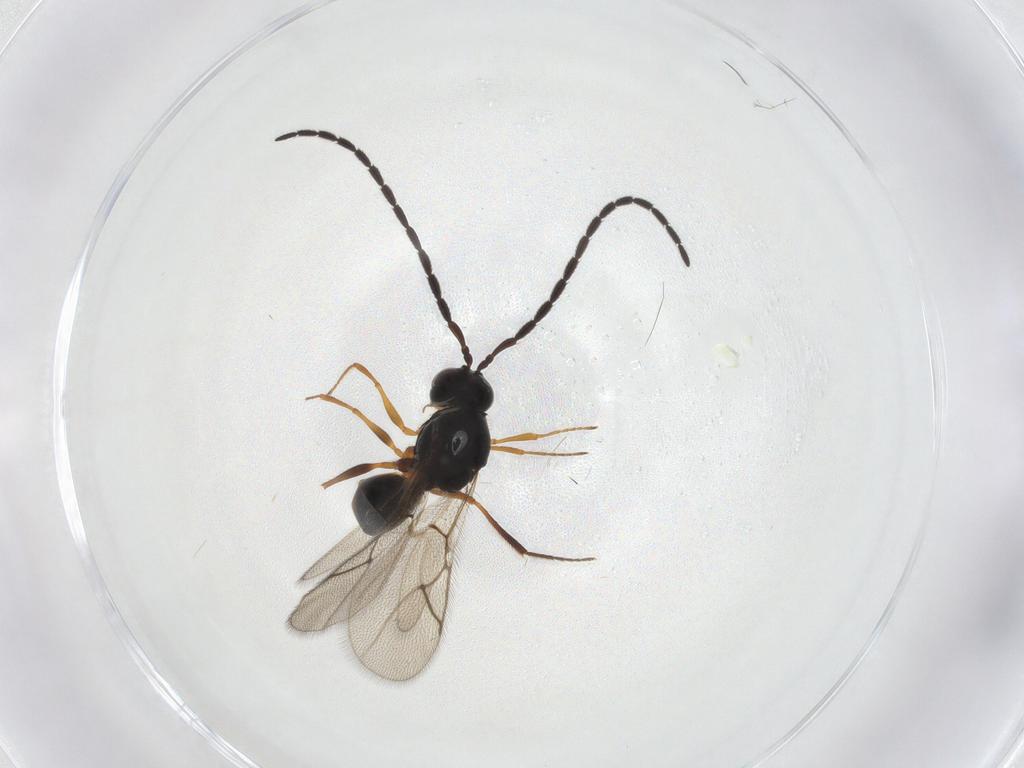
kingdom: Animalia
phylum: Arthropoda
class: Insecta
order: Hymenoptera
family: Figitidae
